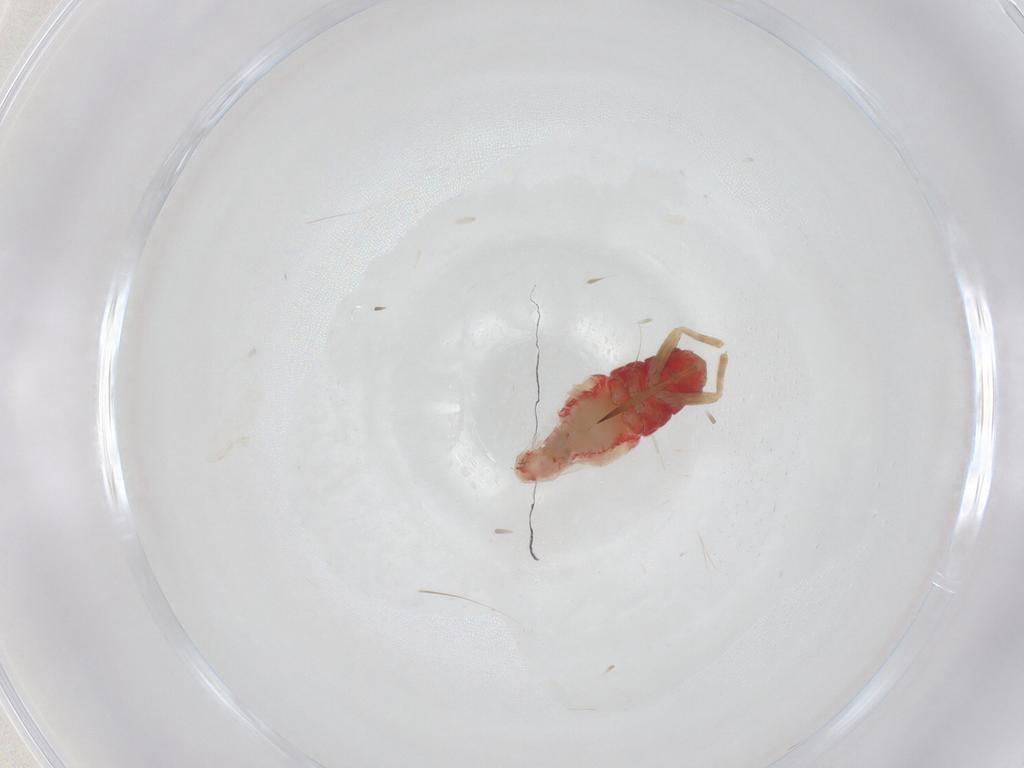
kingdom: Animalia
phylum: Arthropoda
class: Insecta
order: Hemiptera
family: Miridae
